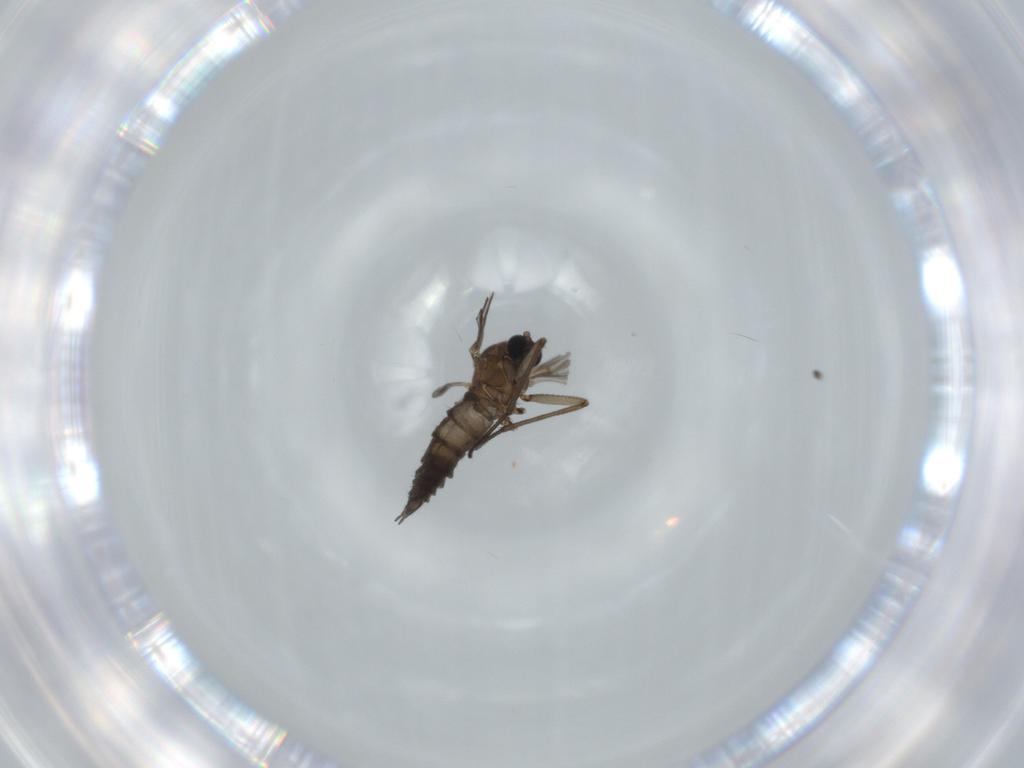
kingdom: Animalia
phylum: Arthropoda
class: Insecta
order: Diptera
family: Sciaridae
